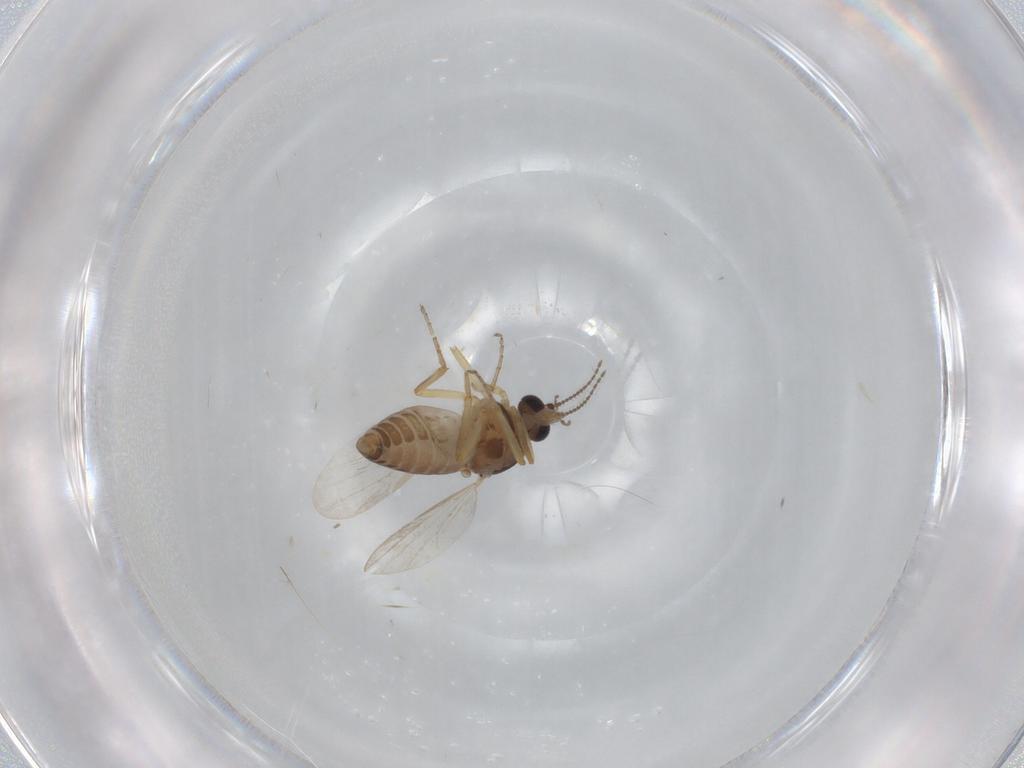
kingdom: Animalia
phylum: Arthropoda
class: Insecta
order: Diptera
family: Ceratopogonidae
